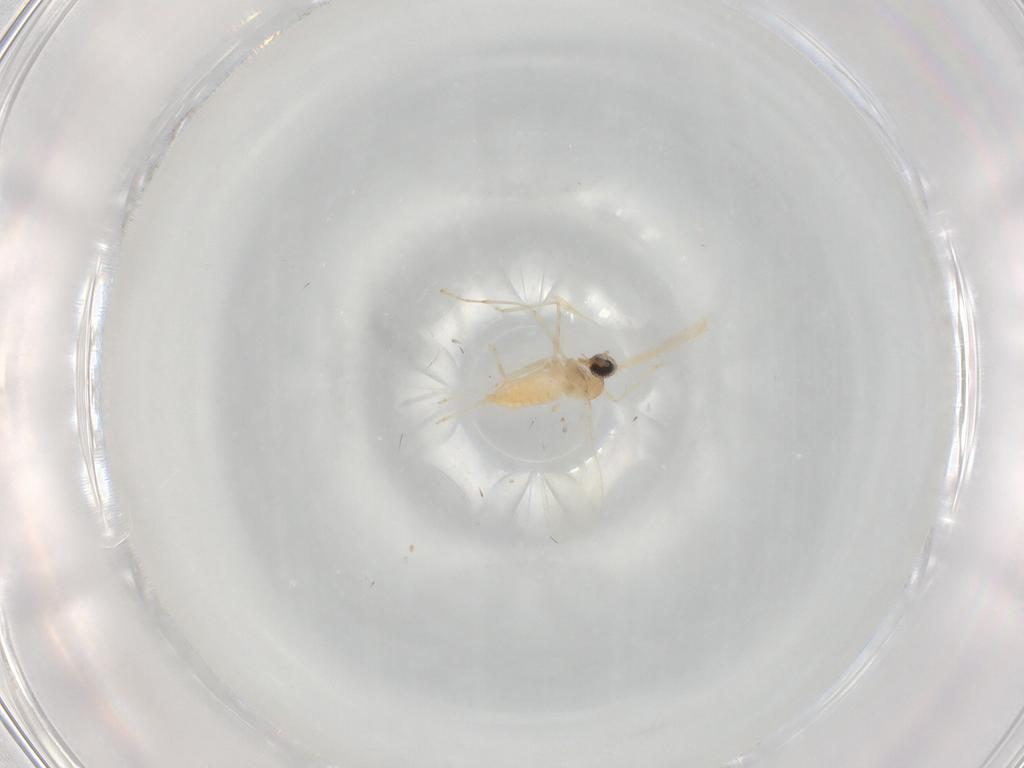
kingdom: Animalia
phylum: Arthropoda
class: Insecta
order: Diptera
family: Cecidomyiidae
